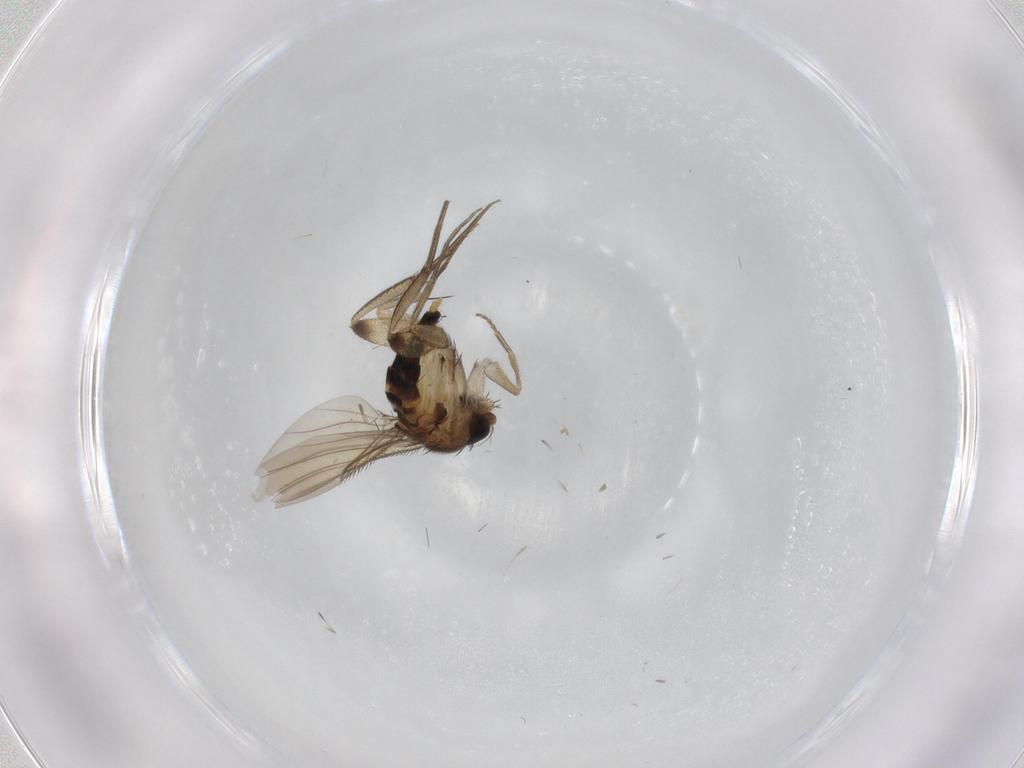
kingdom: Animalia
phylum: Arthropoda
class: Insecta
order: Diptera
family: Phoridae
